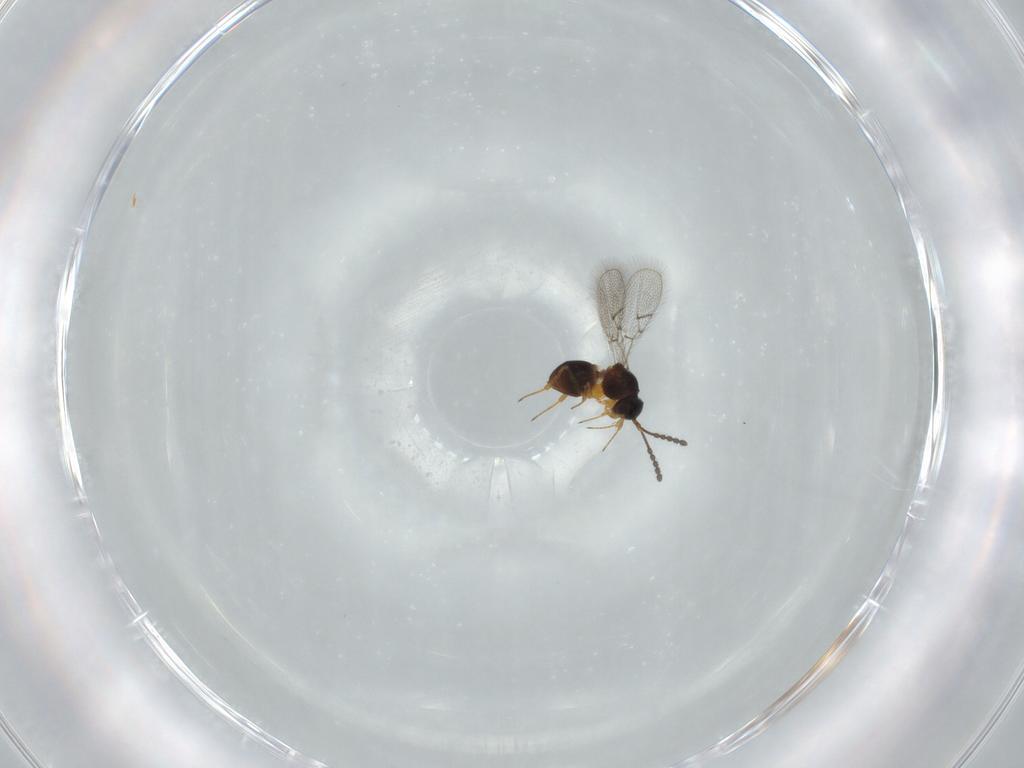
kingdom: Animalia
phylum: Arthropoda
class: Insecta
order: Hymenoptera
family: Figitidae
